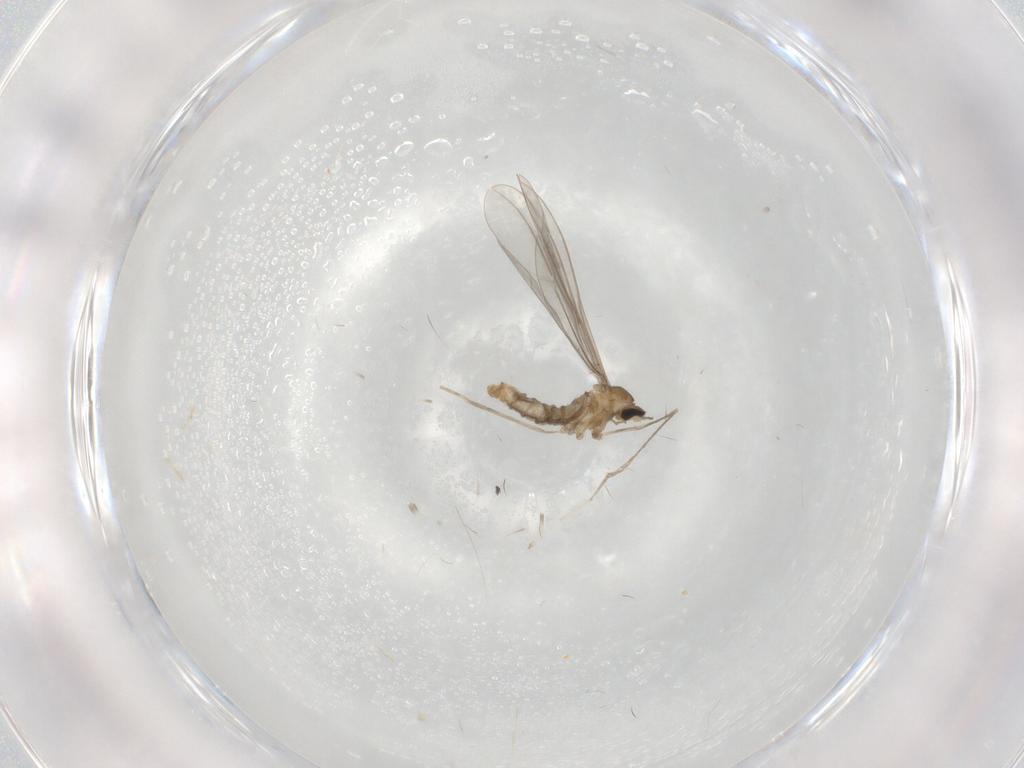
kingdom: Animalia
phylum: Arthropoda
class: Insecta
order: Diptera
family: Cecidomyiidae
